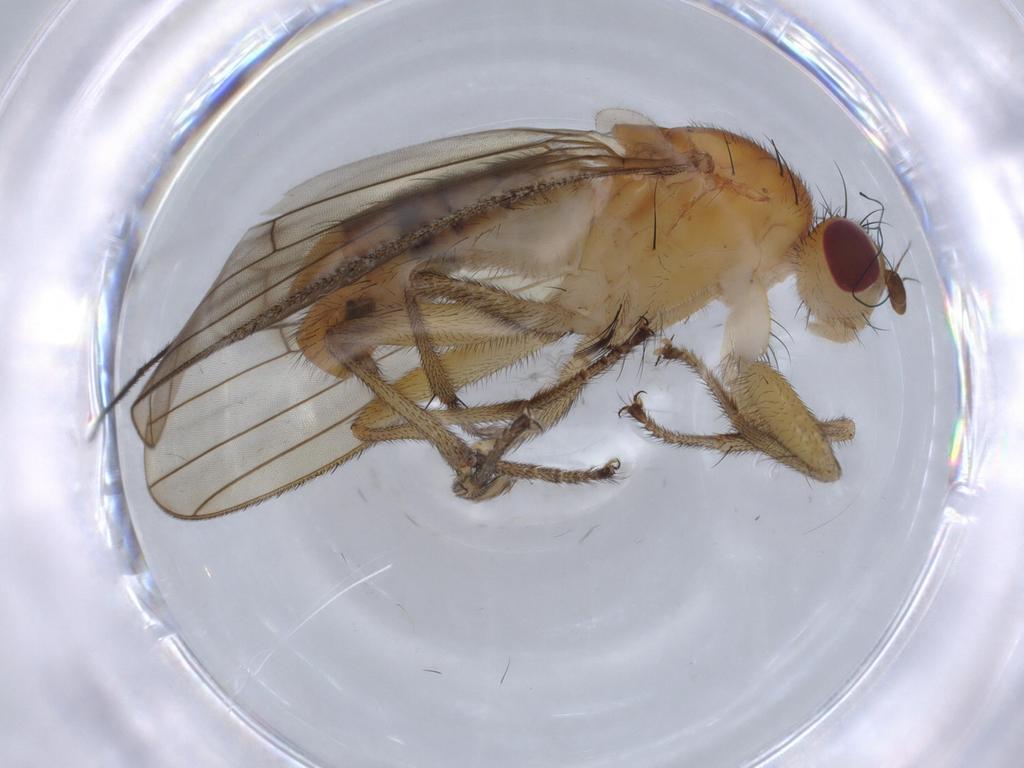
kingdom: Animalia
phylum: Arthropoda
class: Insecta
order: Diptera
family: Heleomyzidae
